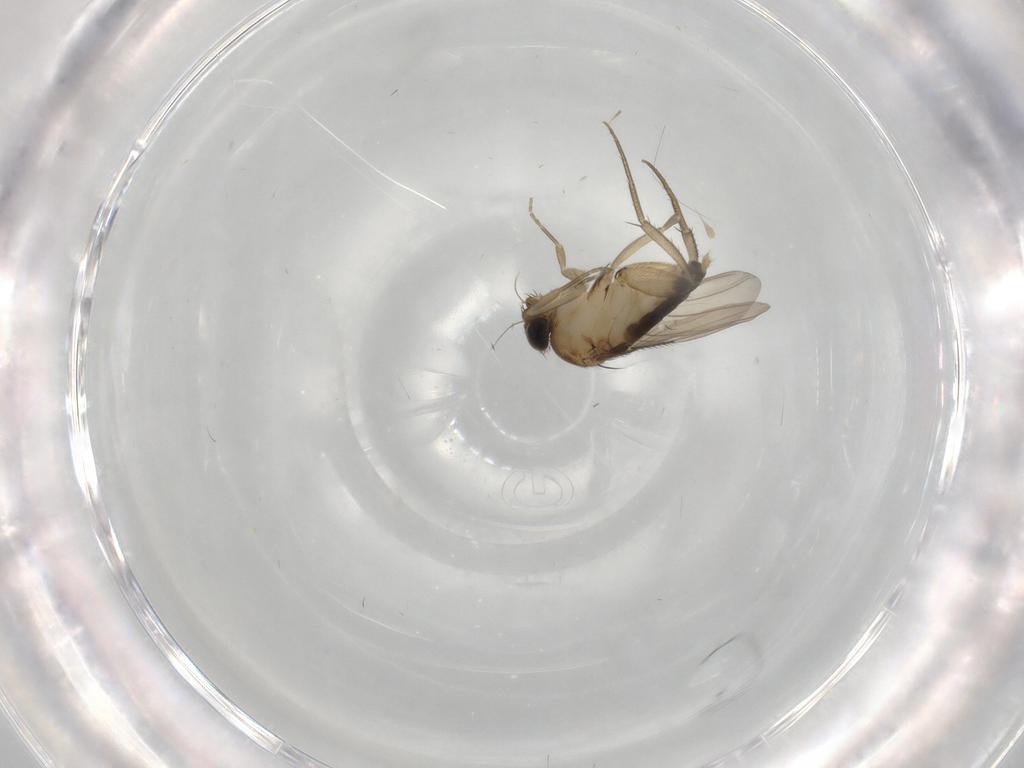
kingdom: Animalia
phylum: Arthropoda
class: Insecta
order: Diptera
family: Phoridae
